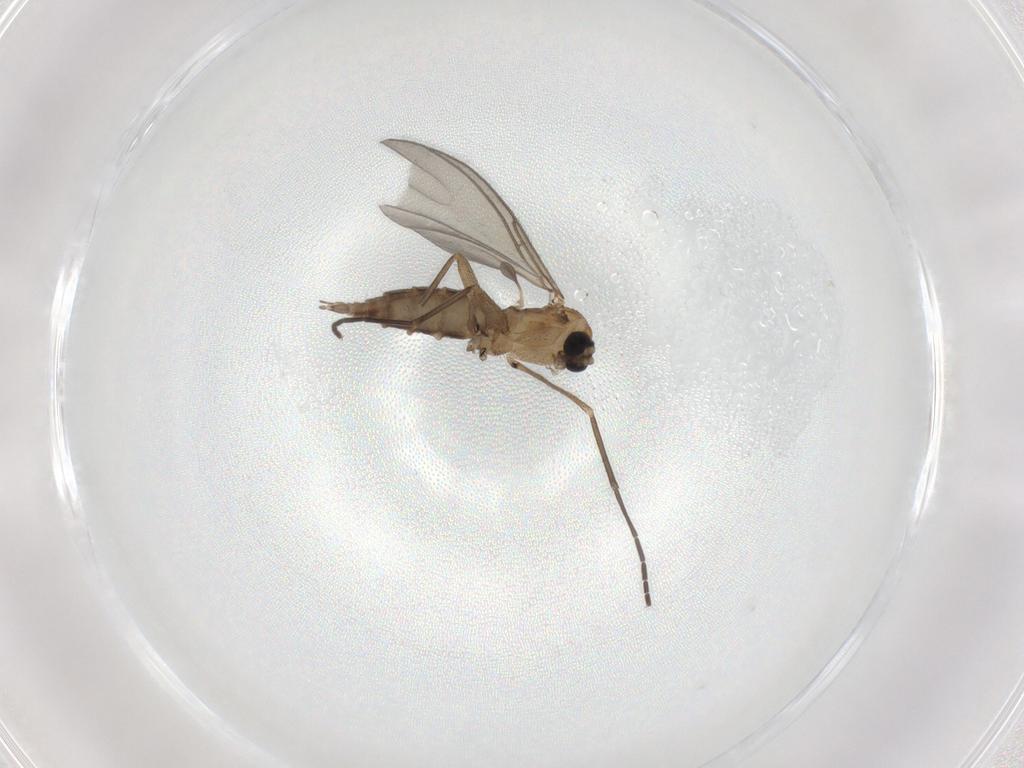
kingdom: Animalia
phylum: Arthropoda
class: Insecta
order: Diptera
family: Sciaridae
